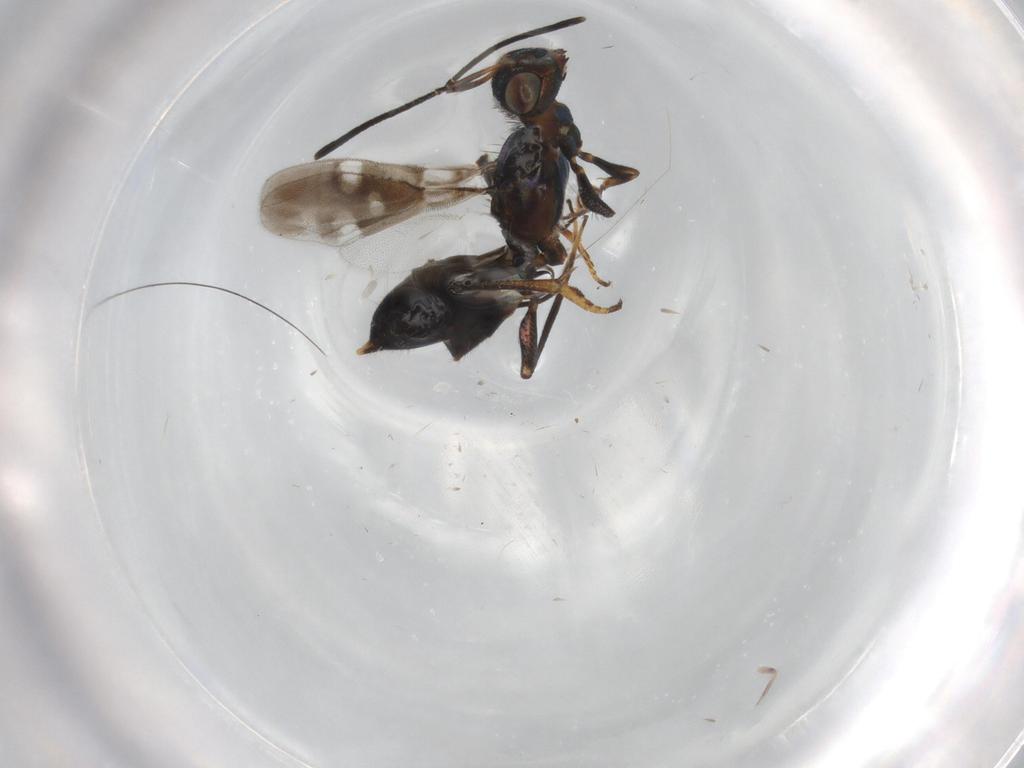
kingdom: Animalia
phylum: Arthropoda
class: Insecta
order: Hymenoptera
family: Eupelmidae
